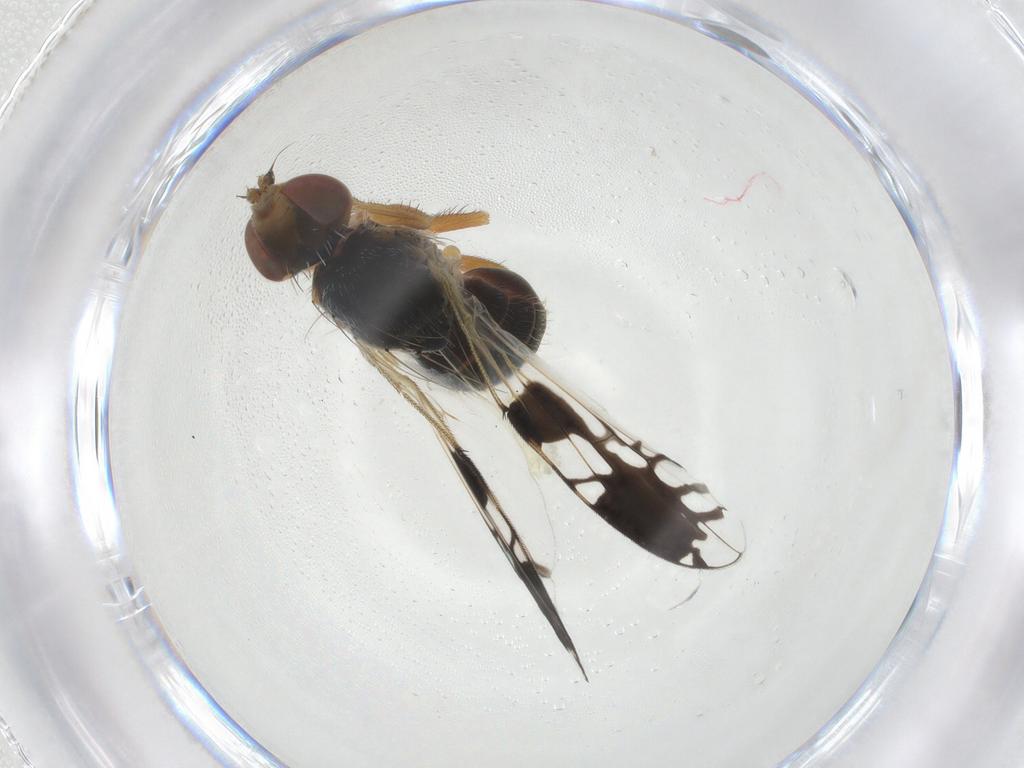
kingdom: Animalia
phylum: Arthropoda
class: Insecta
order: Diptera
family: Tephritidae
